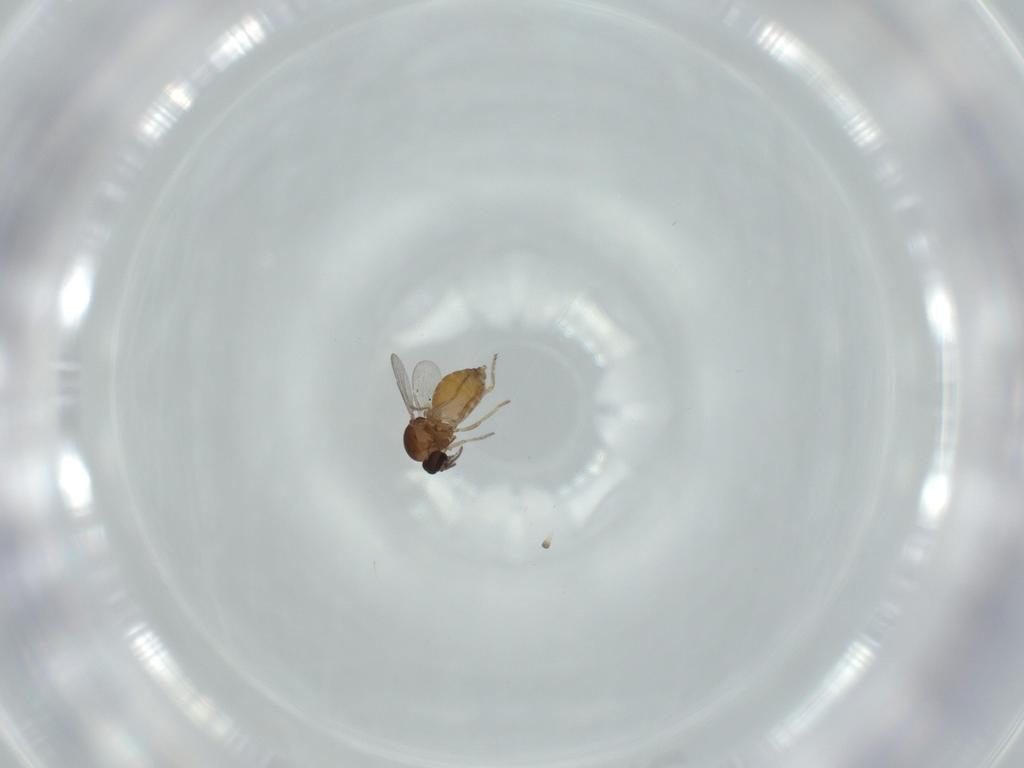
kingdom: Animalia
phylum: Arthropoda
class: Insecta
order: Diptera
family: Ceratopogonidae
